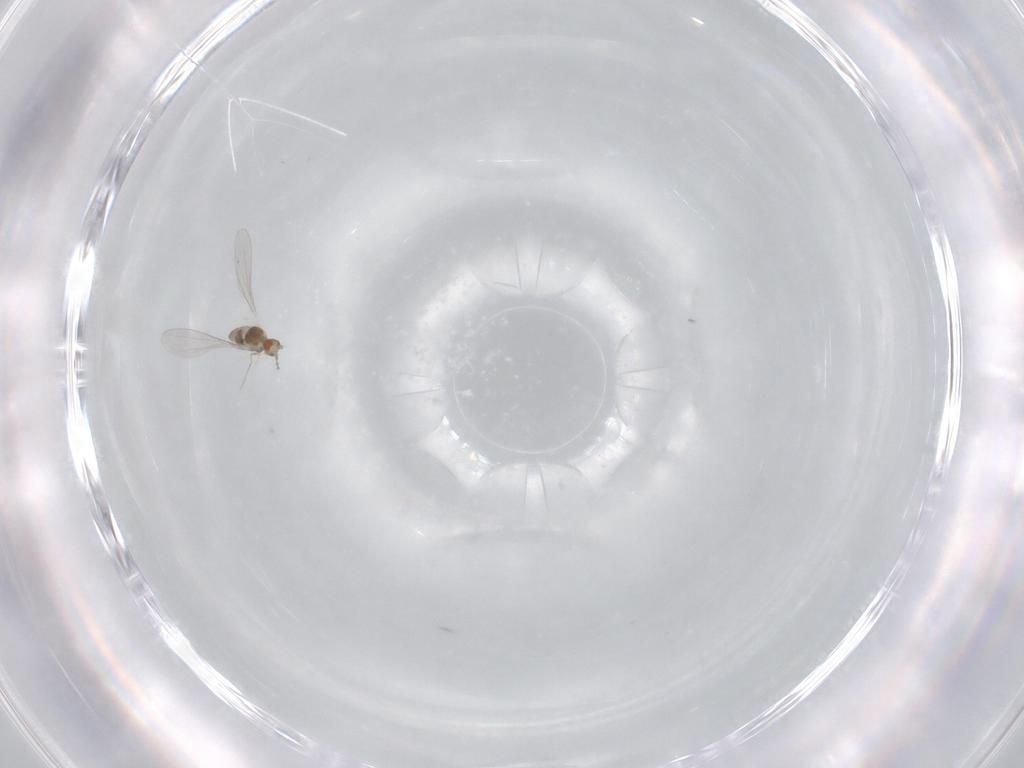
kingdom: Animalia
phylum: Arthropoda
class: Insecta
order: Diptera
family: Cecidomyiidae
